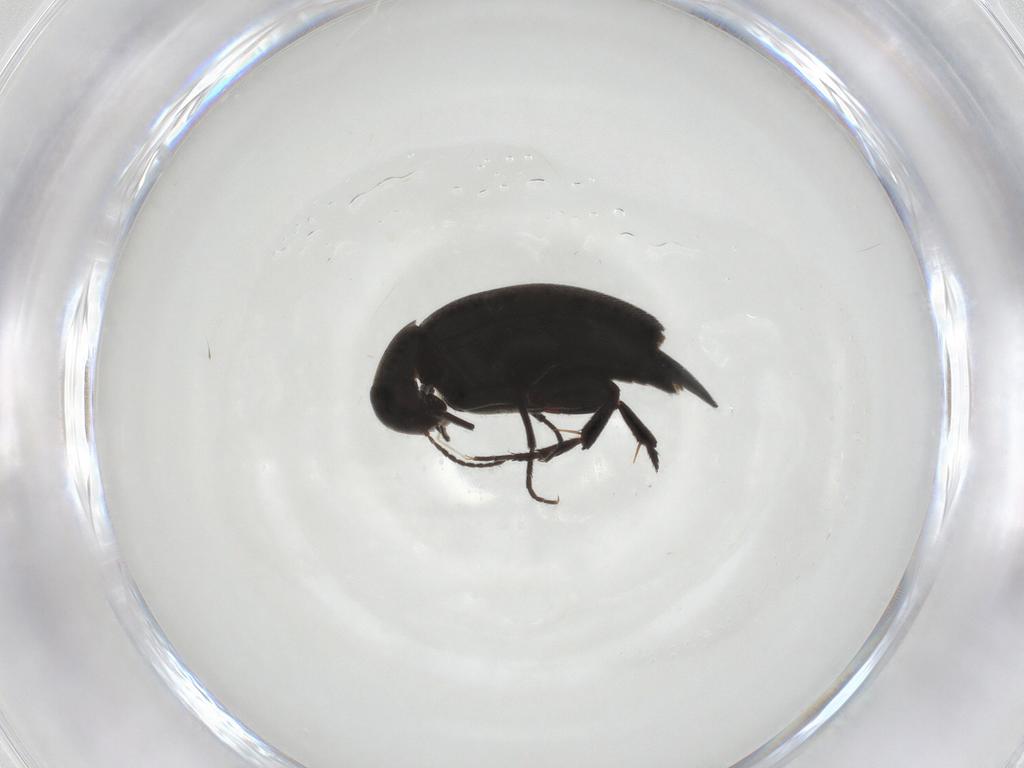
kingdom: Animalia
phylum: Arthropoda
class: Insecta
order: Coleoptera
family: Mordellidae
